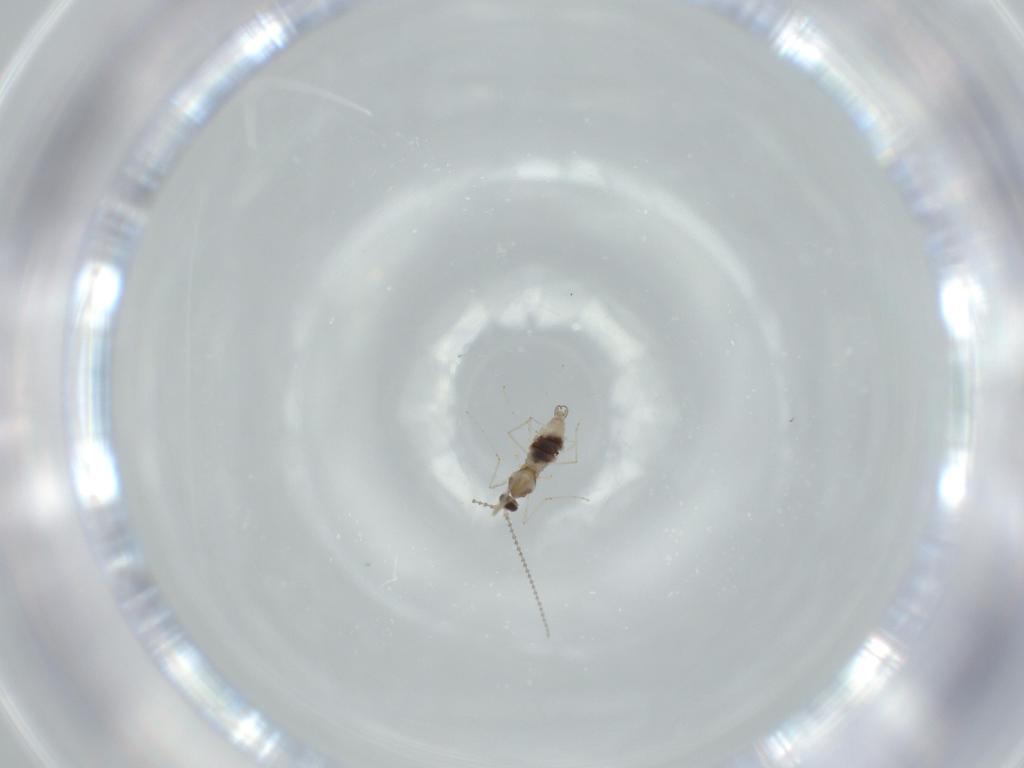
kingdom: Animalia
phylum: Arthropoda
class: Insecta
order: Diptera
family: Cecidomyiidae
